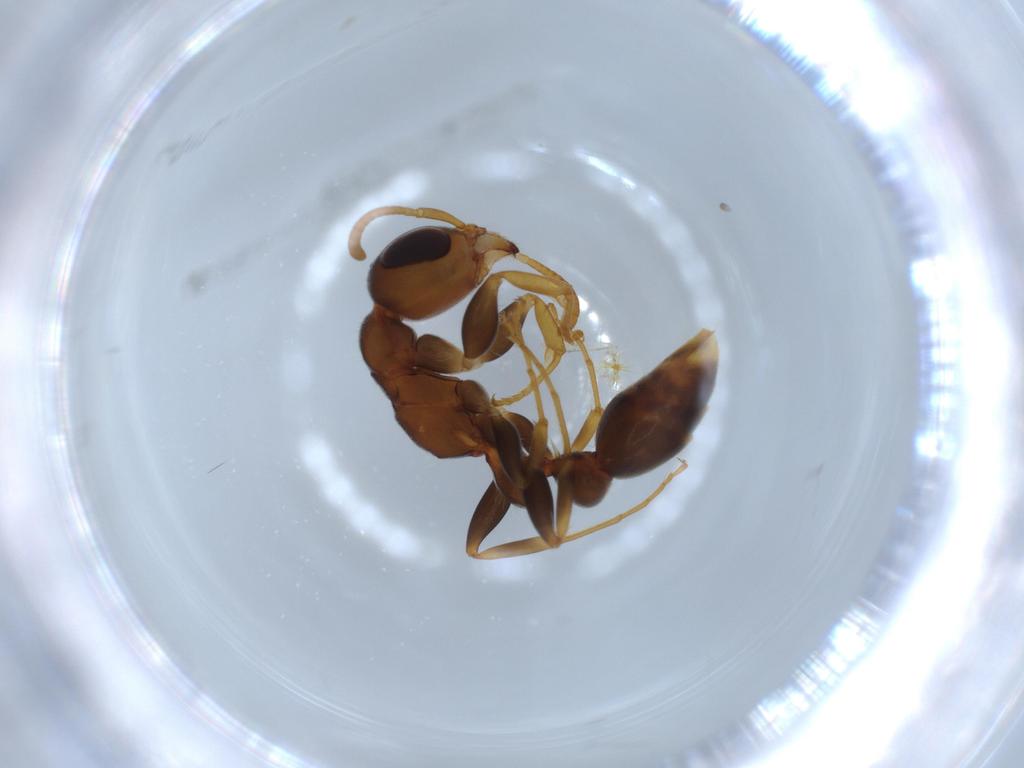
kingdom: Animalia
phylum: Arthropoda
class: Insecta
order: Hymenoptera
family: Formicidae
